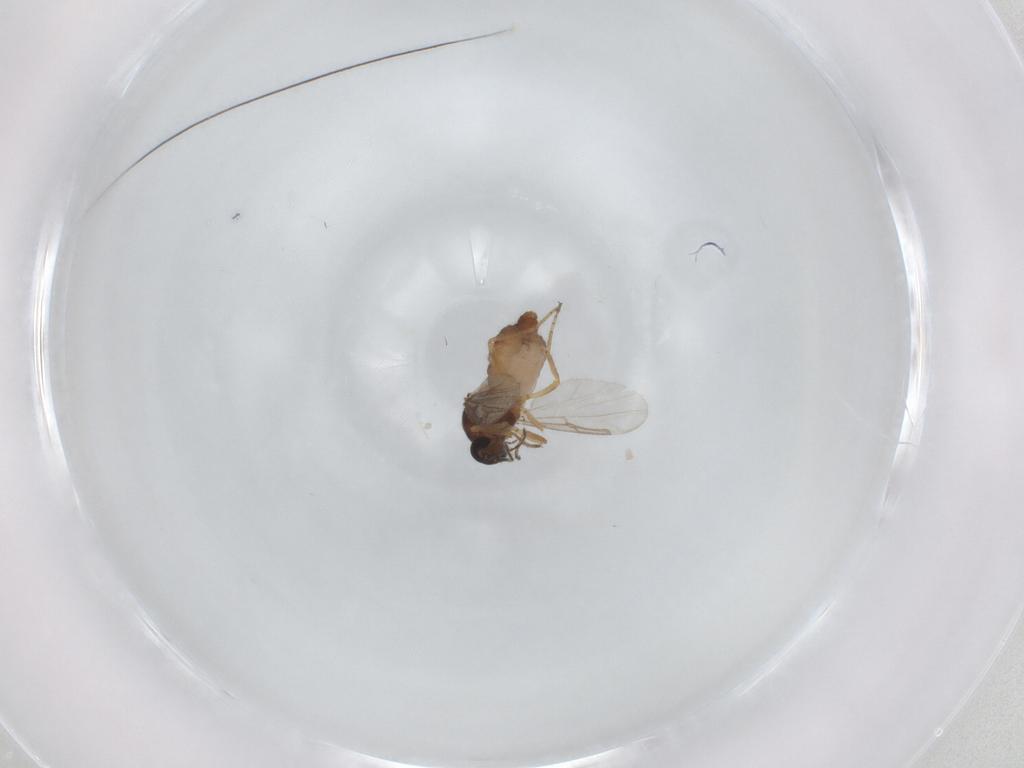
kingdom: Animalia
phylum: Arthropoda
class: Insecta
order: Diptera
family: Ceratopogonidae
